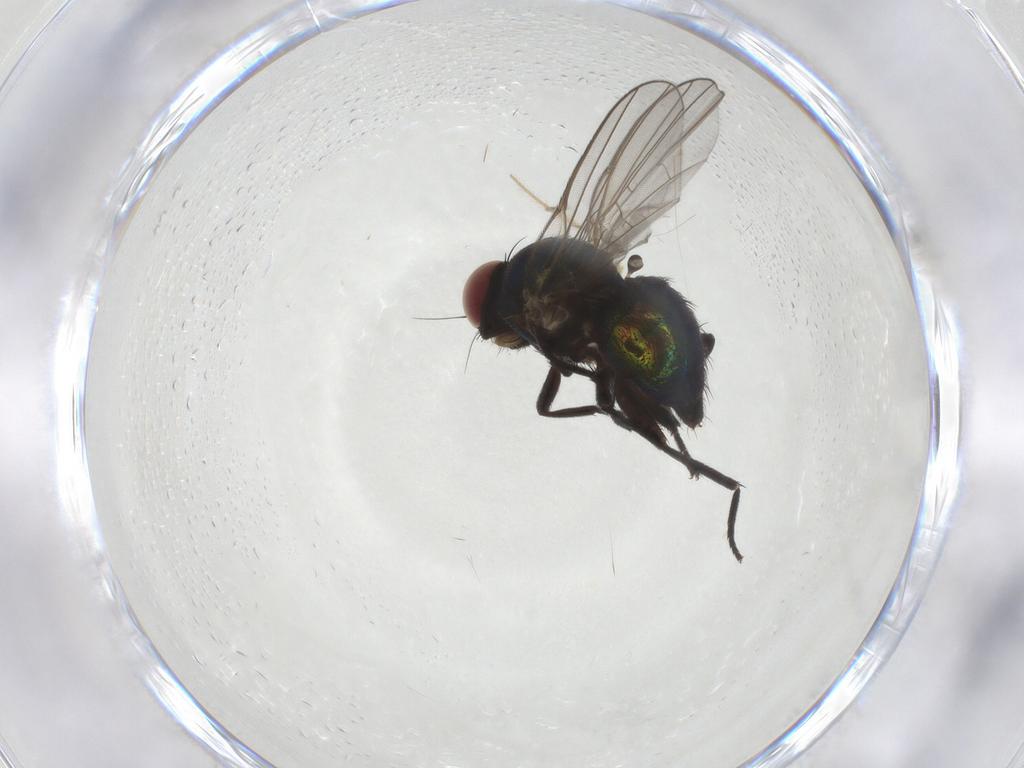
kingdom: Animalia
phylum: Arthropoda
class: Insecta
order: Diptera
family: Agromyzidae
